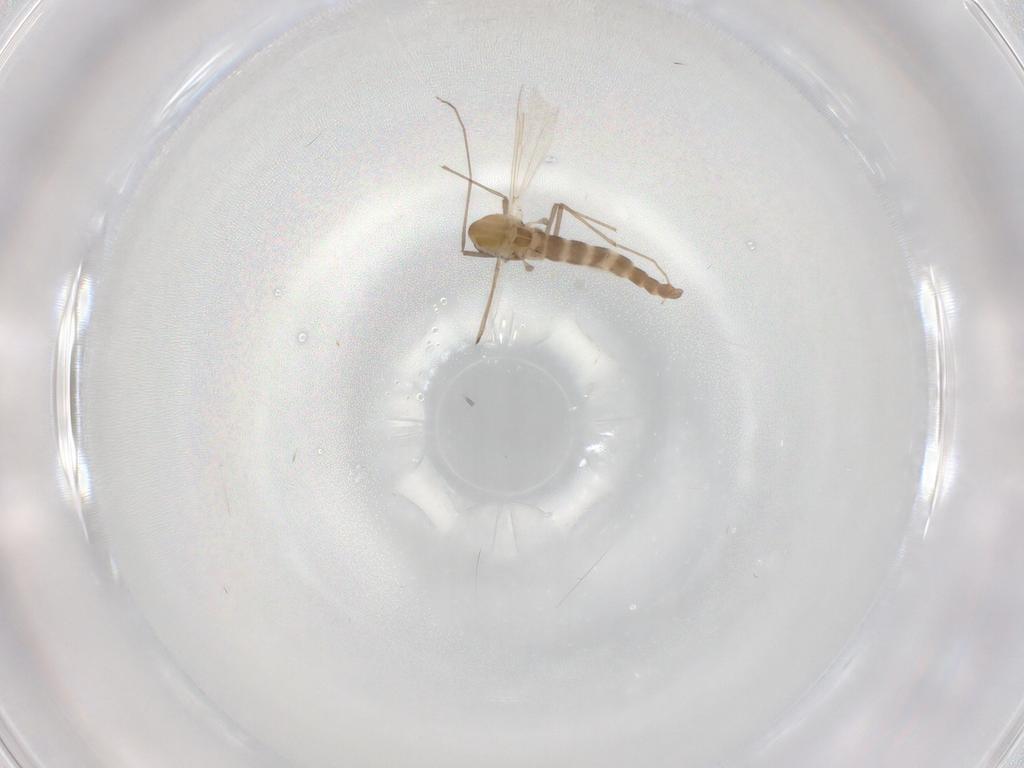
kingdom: Animalia
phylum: Arthropoda
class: Insecta
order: Diptera
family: Chironomidae
